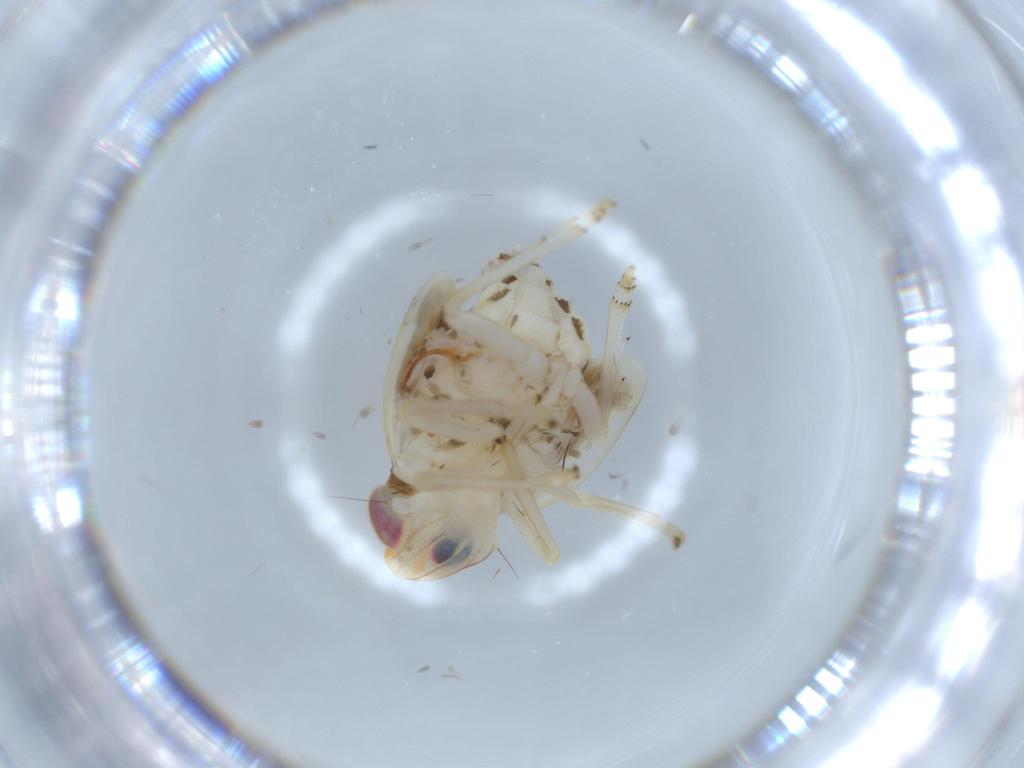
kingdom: Animalia
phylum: Arthropoda
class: Insecta
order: Hemiptera
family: Nogodinidae
